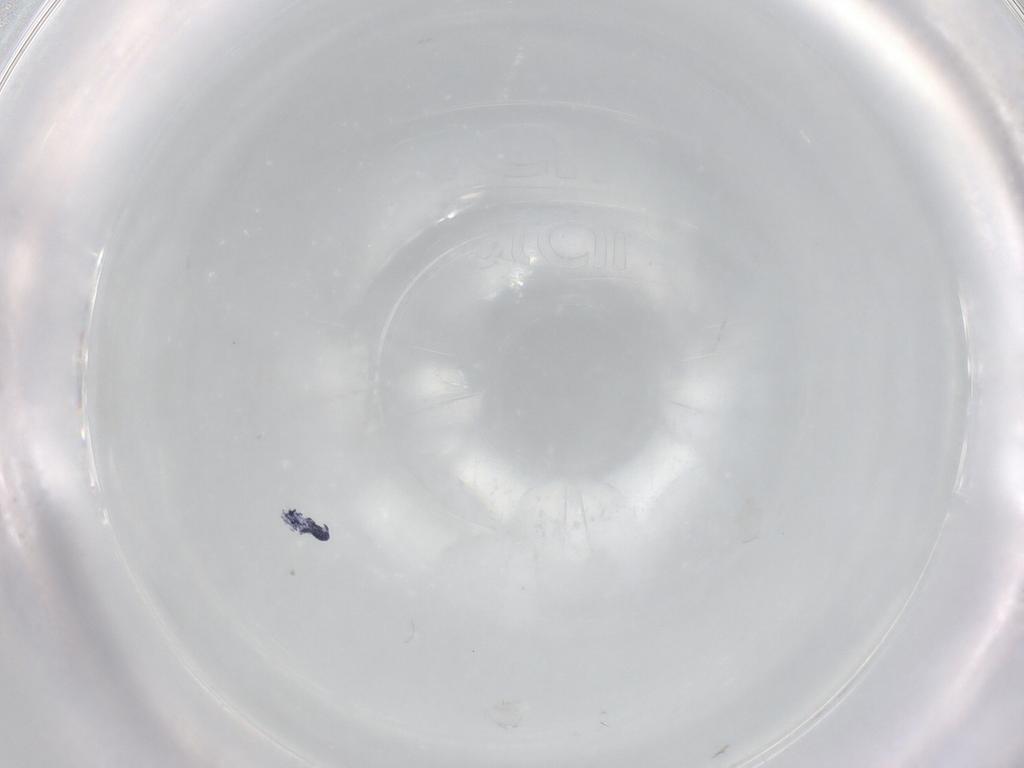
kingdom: Animalia
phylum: Arthropoda
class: Collembola
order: Poduromorpha
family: Hypogastruridae
